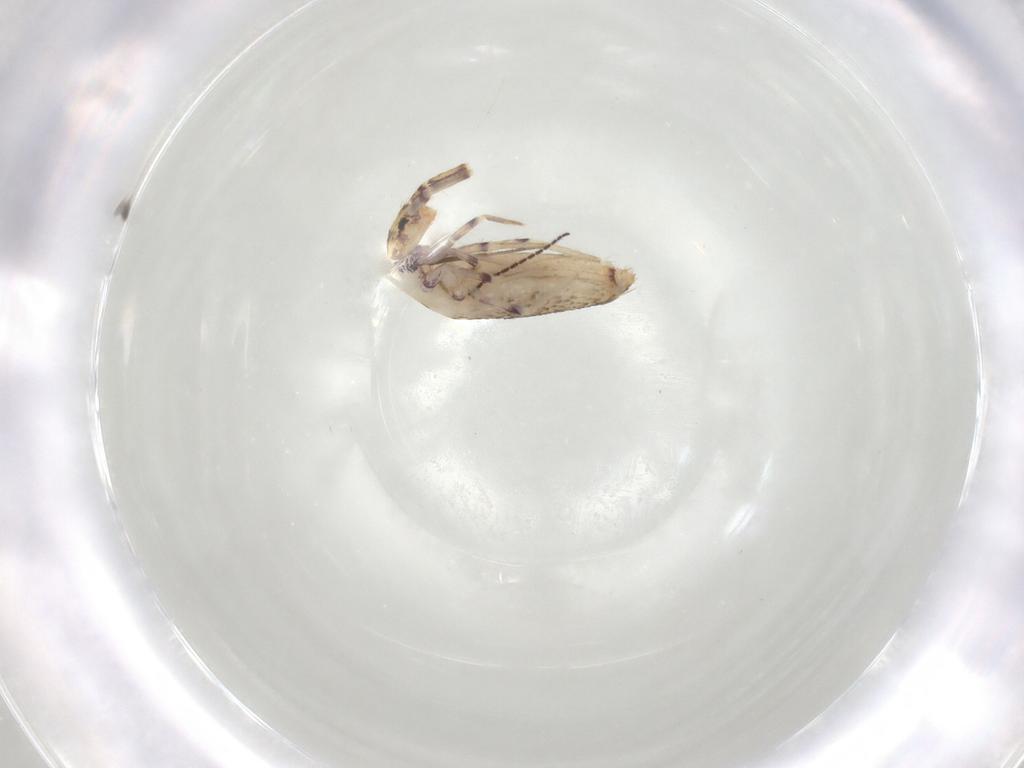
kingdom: Animalia
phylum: Arthropoda
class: Collembola
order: Entomobryomorpha
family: Entomobryidae
